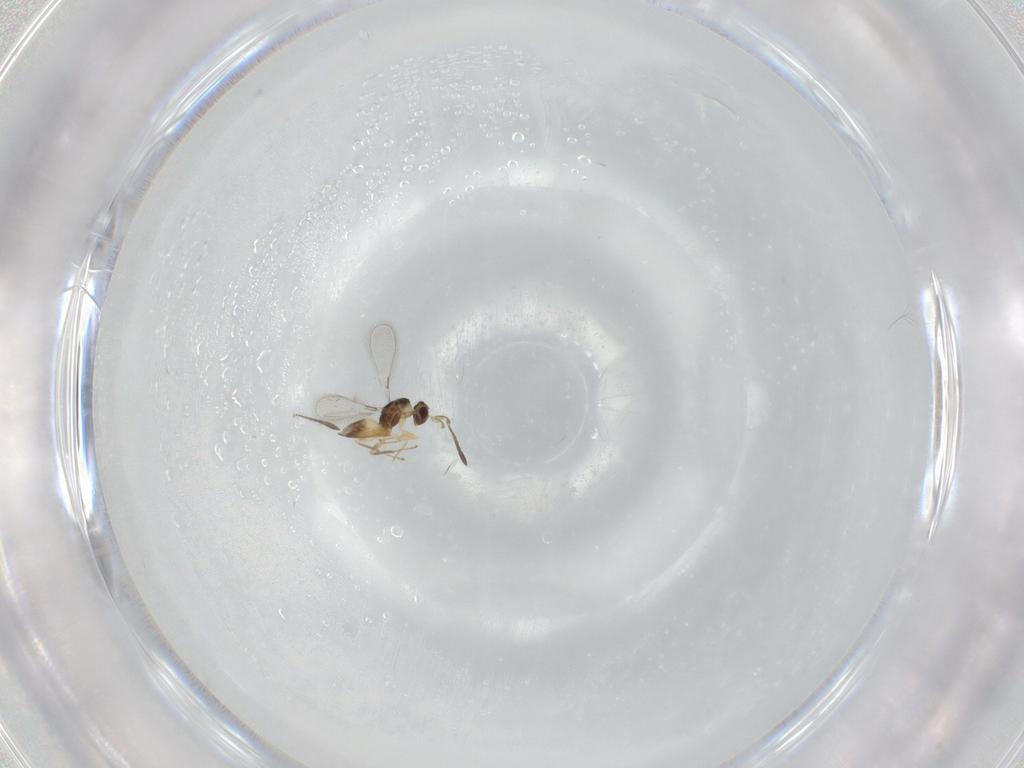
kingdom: Animalia
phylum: Arthropoda
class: Insecta
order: Hymenoptera
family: Mymaridae
